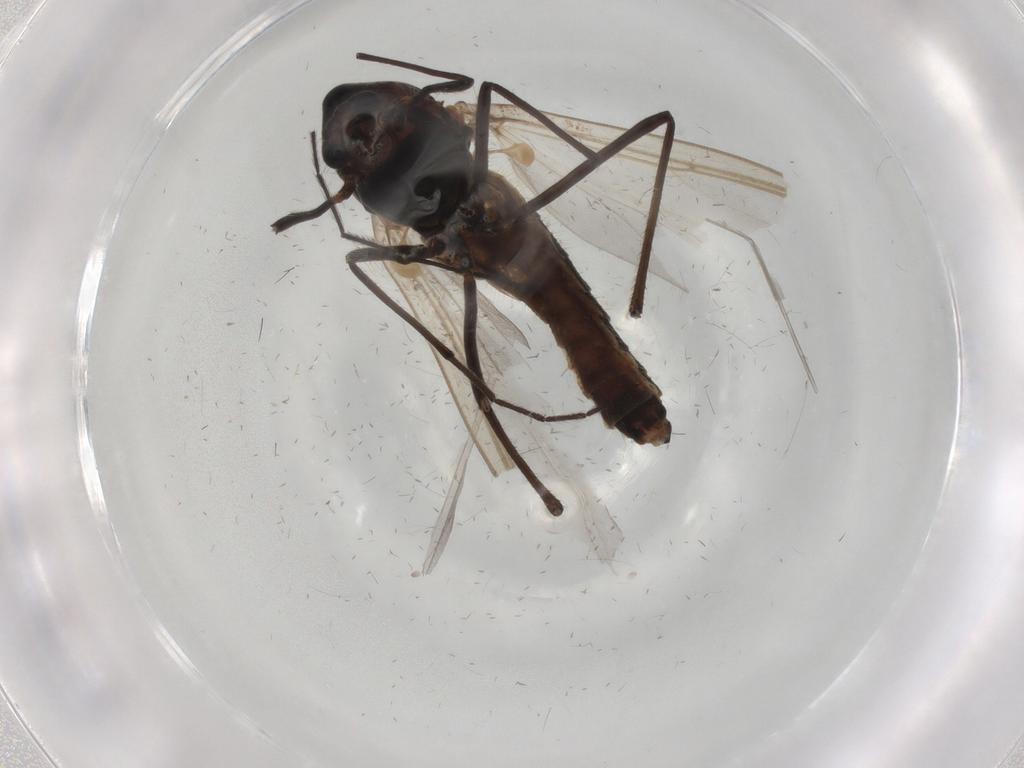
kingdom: Animalia
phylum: Arthropoda
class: Insecta
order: Diptera
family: Chironomidae
